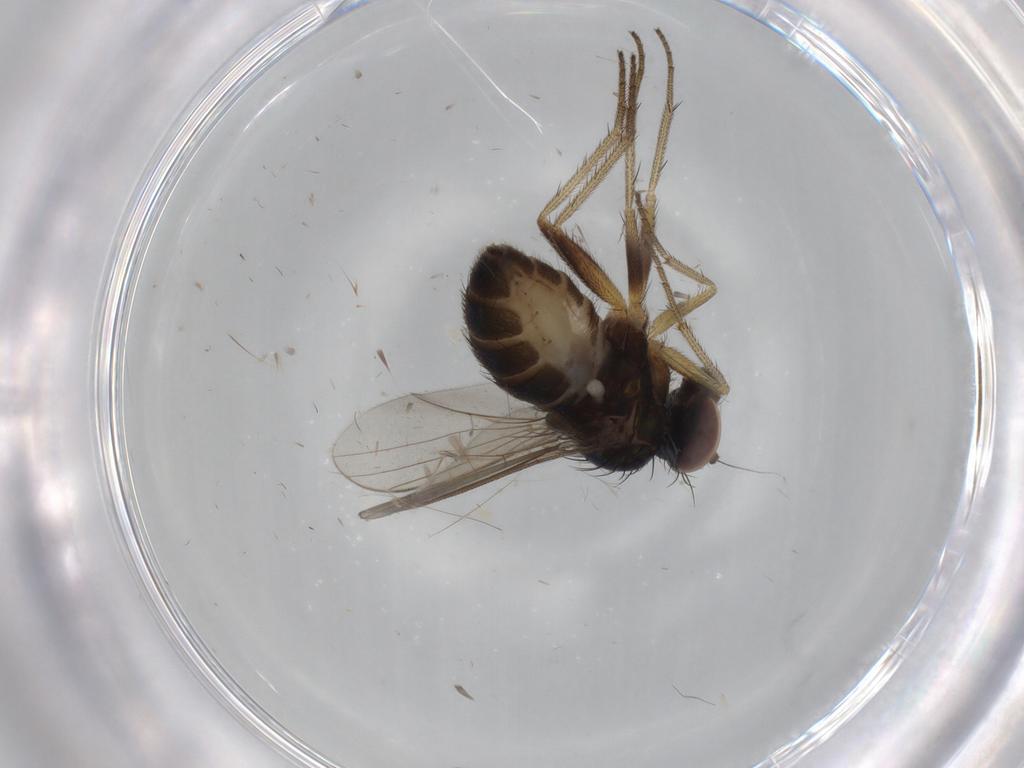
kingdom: Animalia
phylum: Arthropoda
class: Insecta
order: Diptera
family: Dolichopodidae
